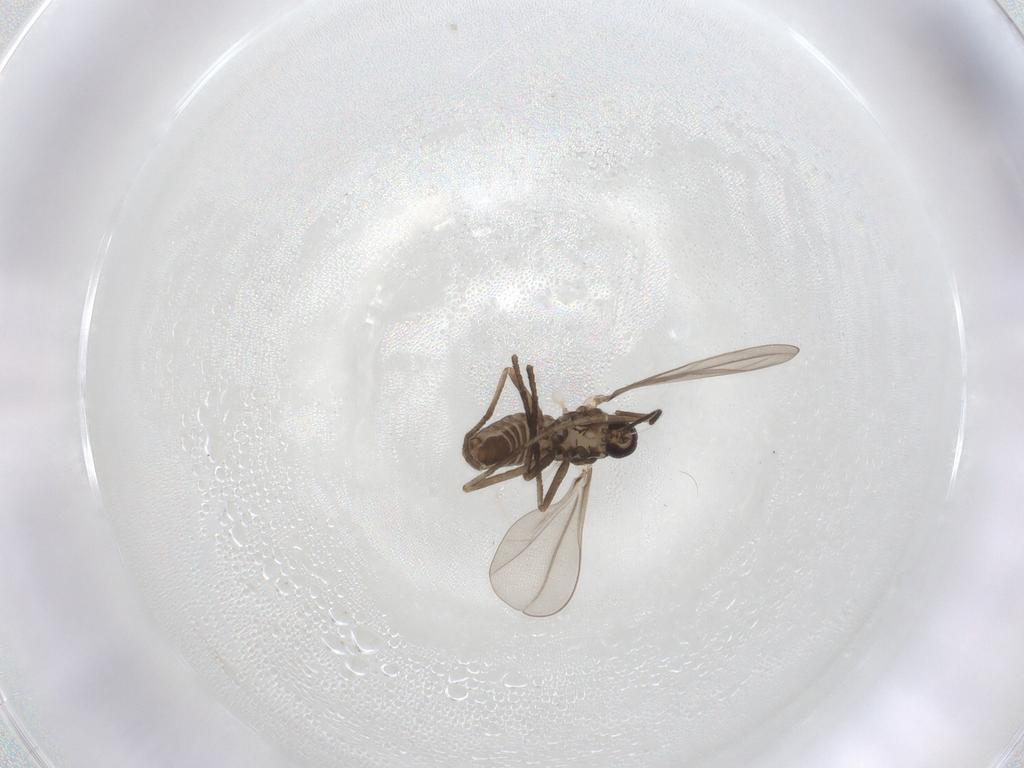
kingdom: Animalia
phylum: Arthropoda
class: Insecta
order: Diptera
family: Cecidomyiidae
